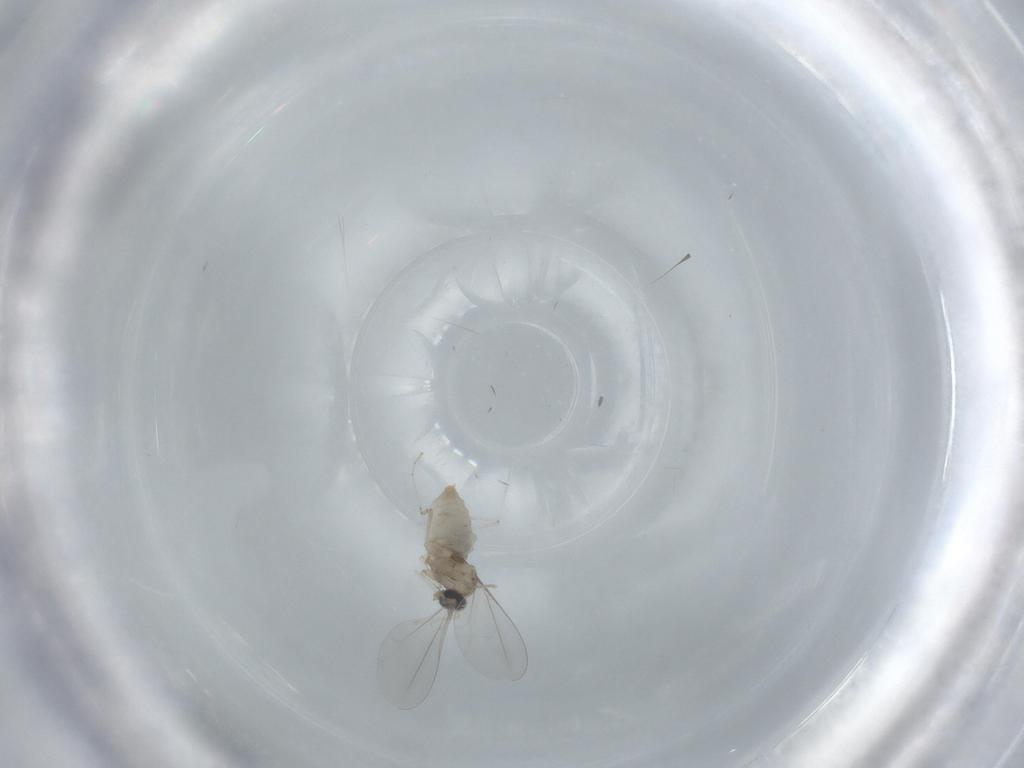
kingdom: Animalia
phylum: Arthropoda
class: Insecta
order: Diptera
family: Cecidomyiidae
